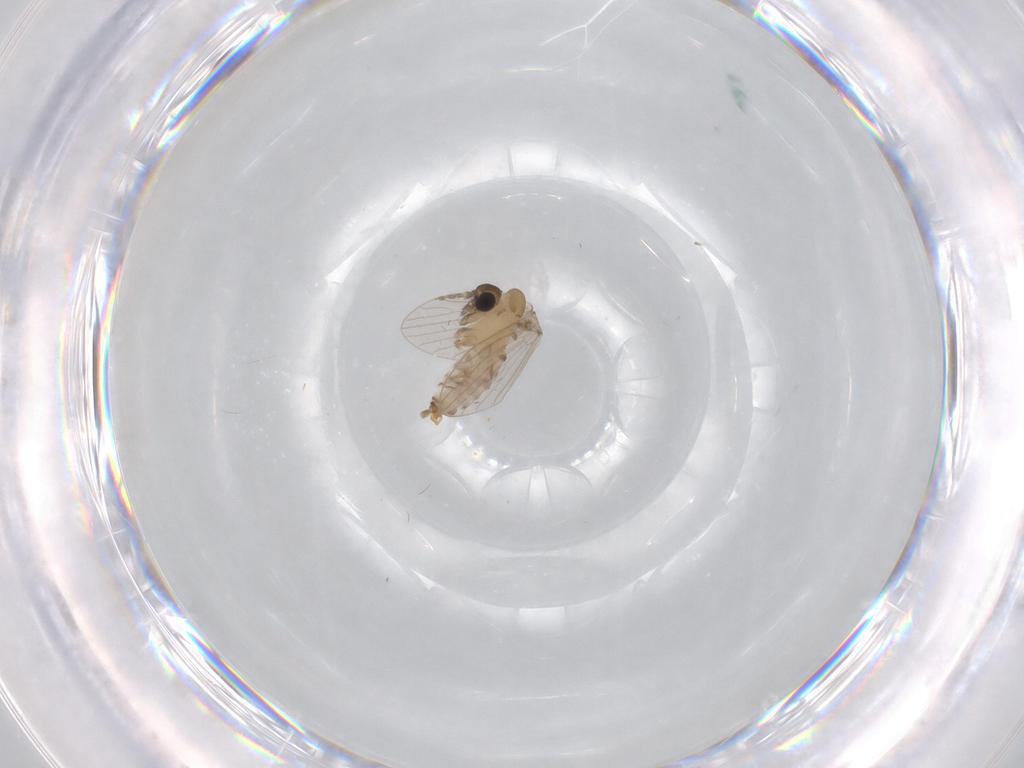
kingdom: Animalia
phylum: Arthropoda
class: Insecta
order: Diptera
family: Psychodidae
